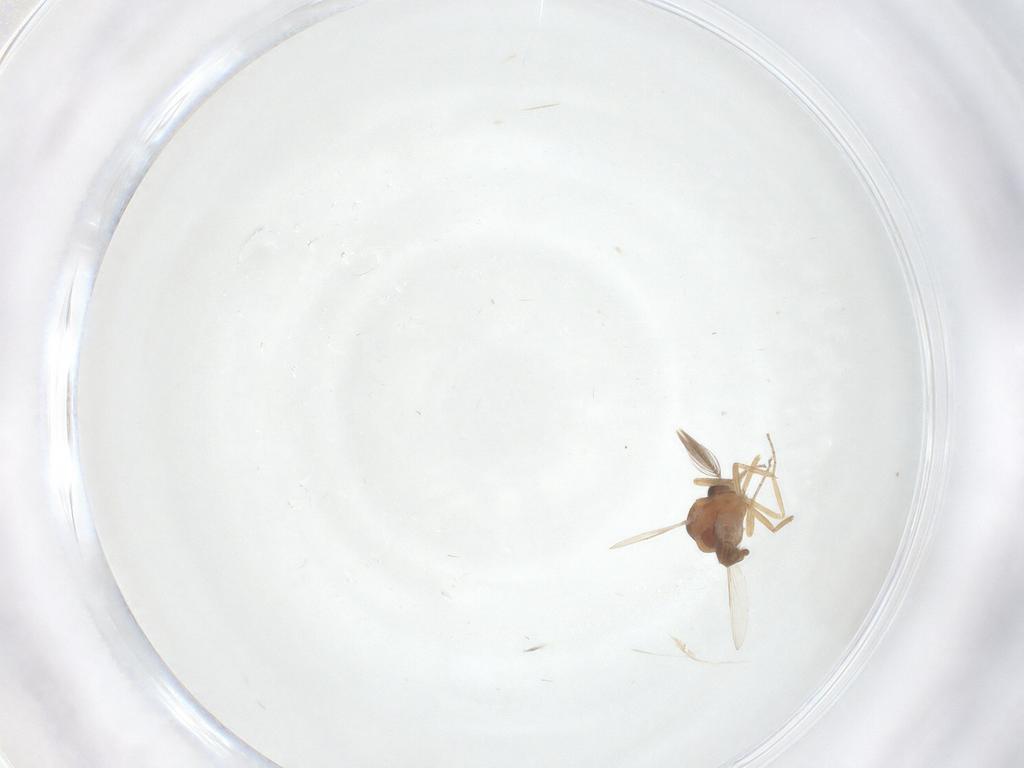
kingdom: Animalia
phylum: Arthropoda
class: Insecta
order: Diptera
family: Ceratopogonidae
